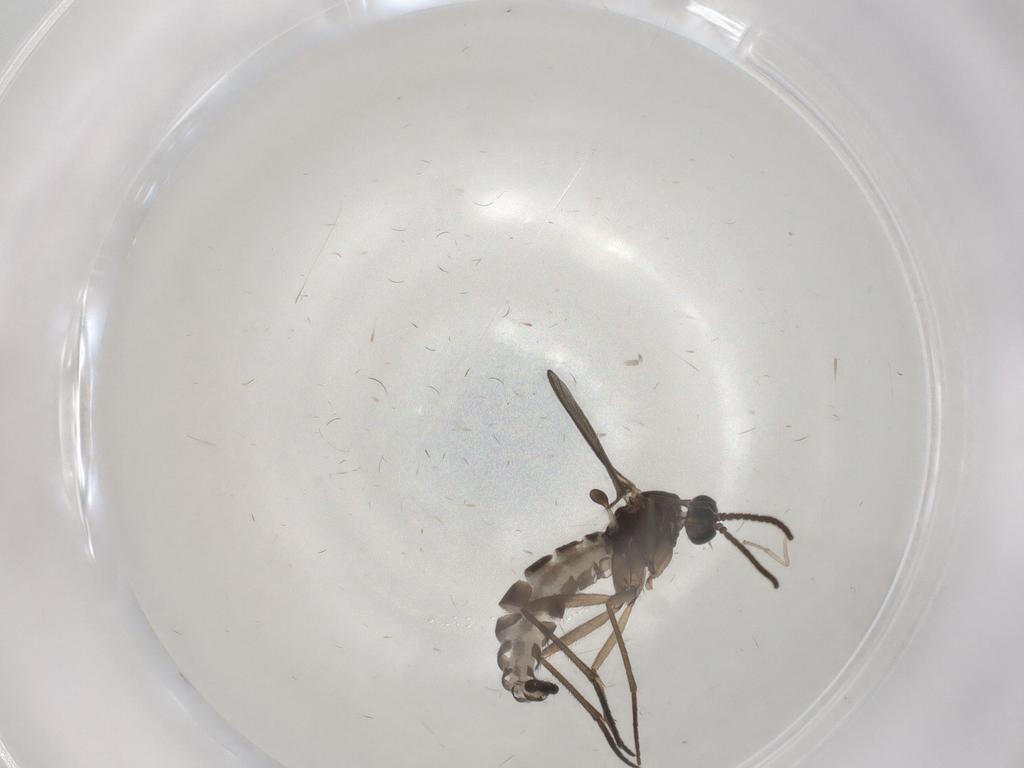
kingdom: Animalia
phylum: Arthropoda
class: Insecta
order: Diptera
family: Sciaridae
